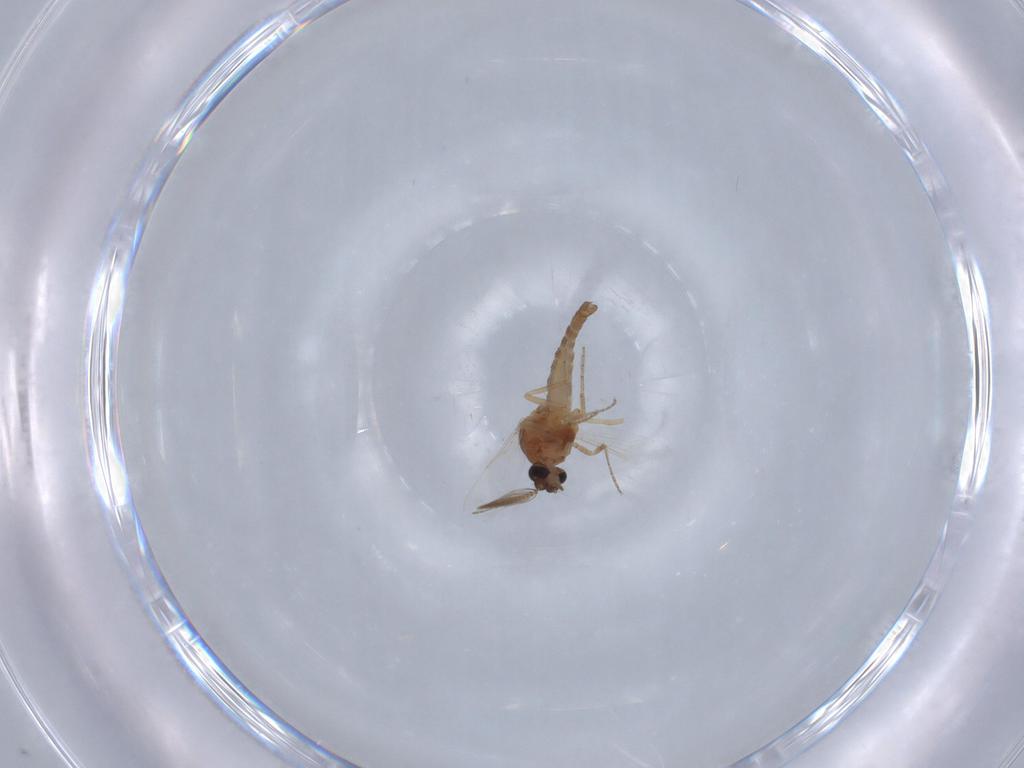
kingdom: Animalia
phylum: Arthropoda
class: Insecta
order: Diptera
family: Ceratopogonidae
